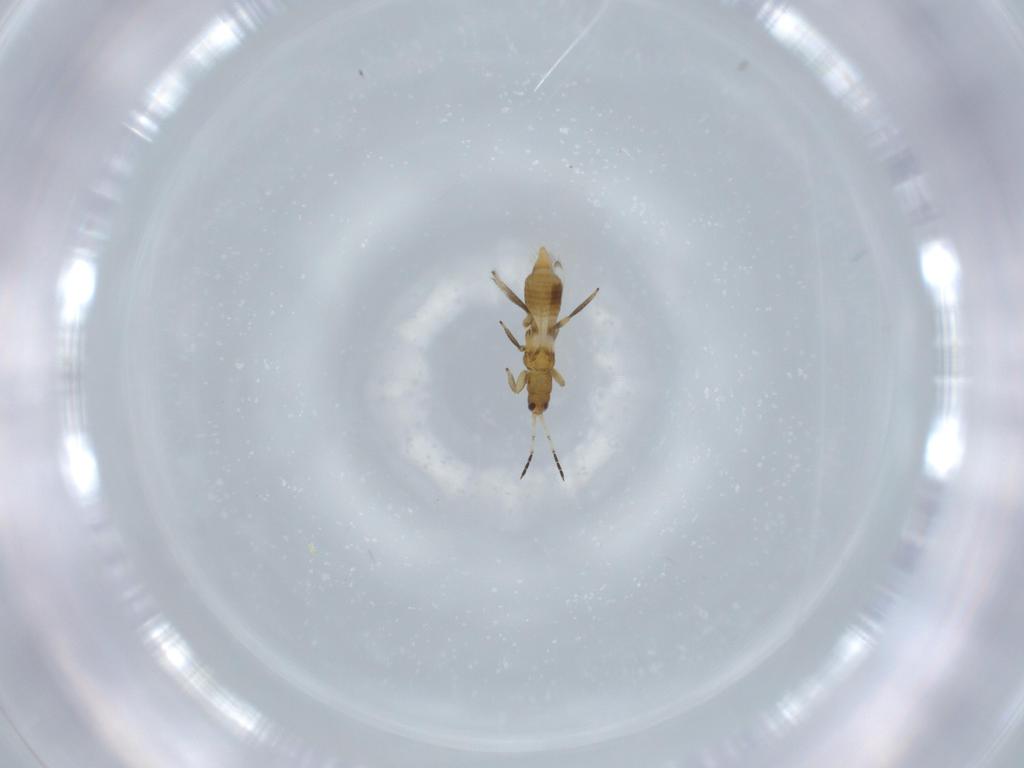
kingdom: Animalia
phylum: Arthropoda
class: Insecta
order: Thysanoptera
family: Aeolothripidae
